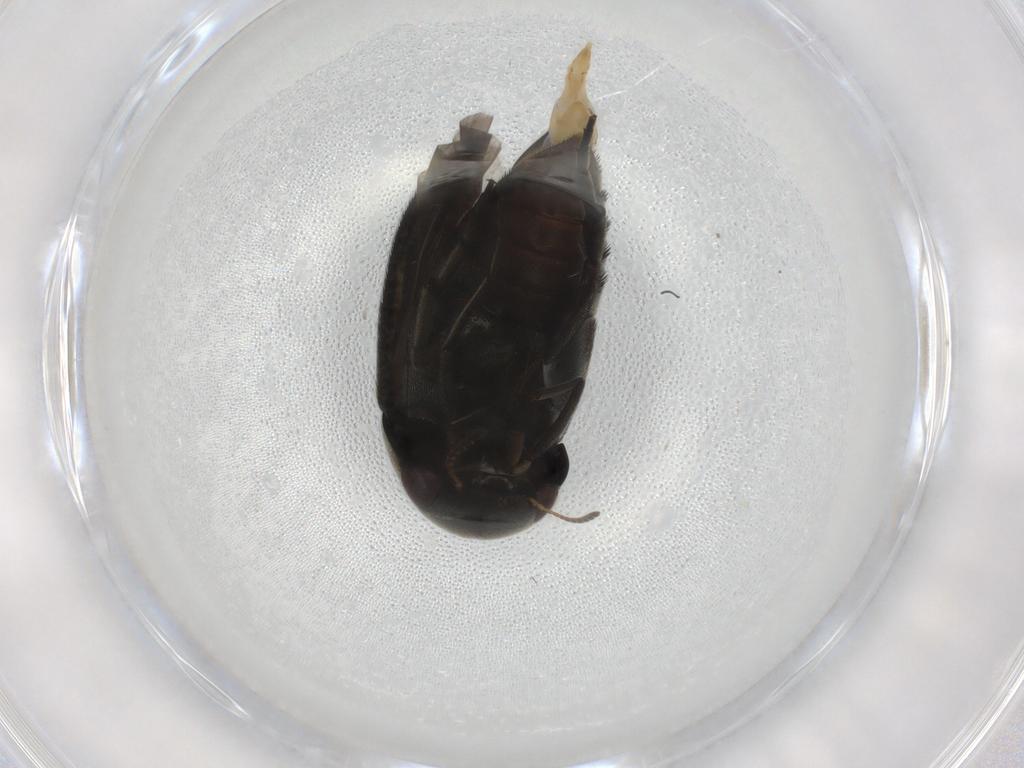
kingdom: Animalia
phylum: Arthropoda
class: Insecta
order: Coleoptera
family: Mordellidae
